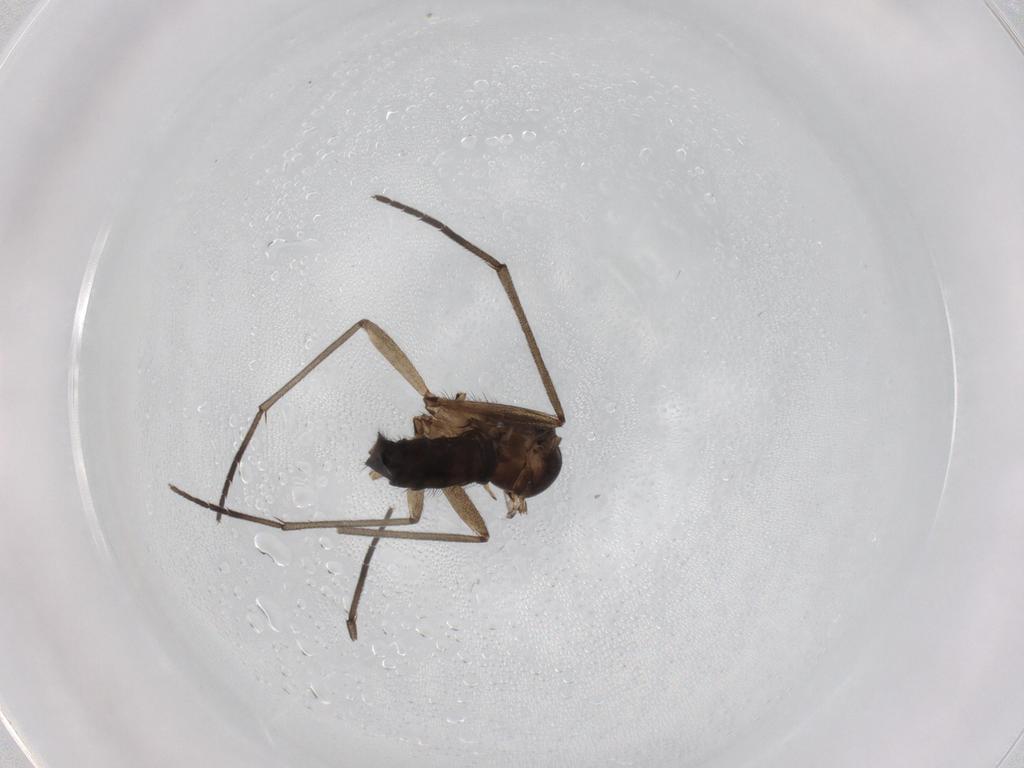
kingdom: Animalia
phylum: Arthropoda
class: Insecta
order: Diptera
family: Sciaridae
